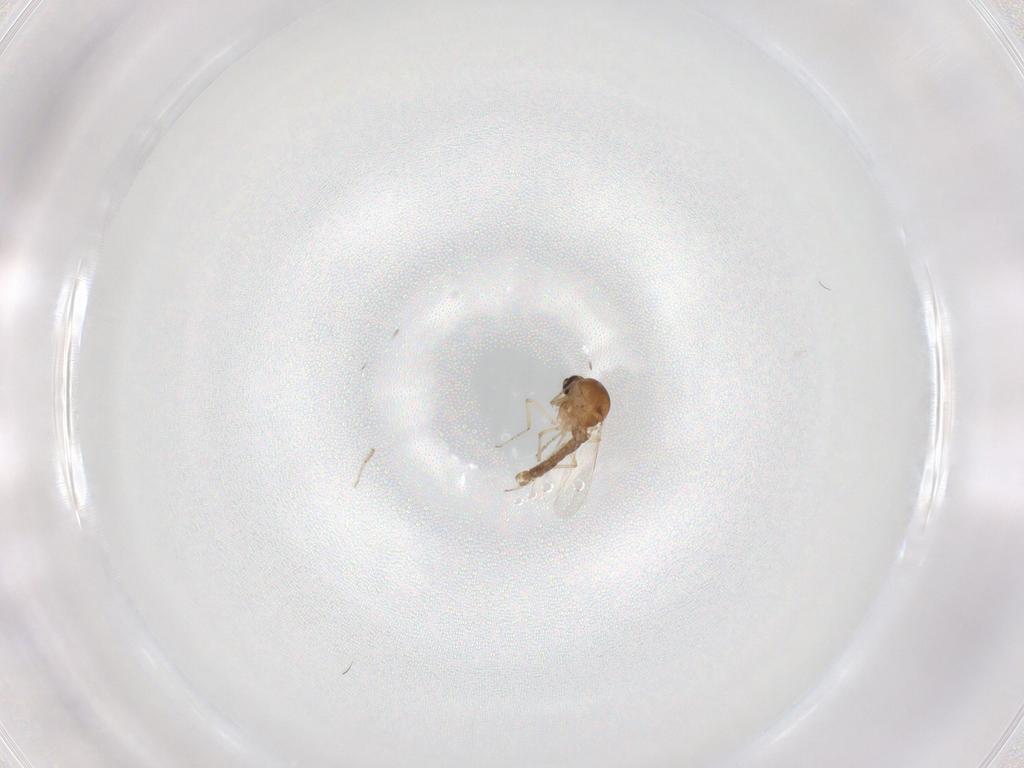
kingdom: Animalia
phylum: Arthropoda
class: Insecta
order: Diptera
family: Ceratopogonidae
